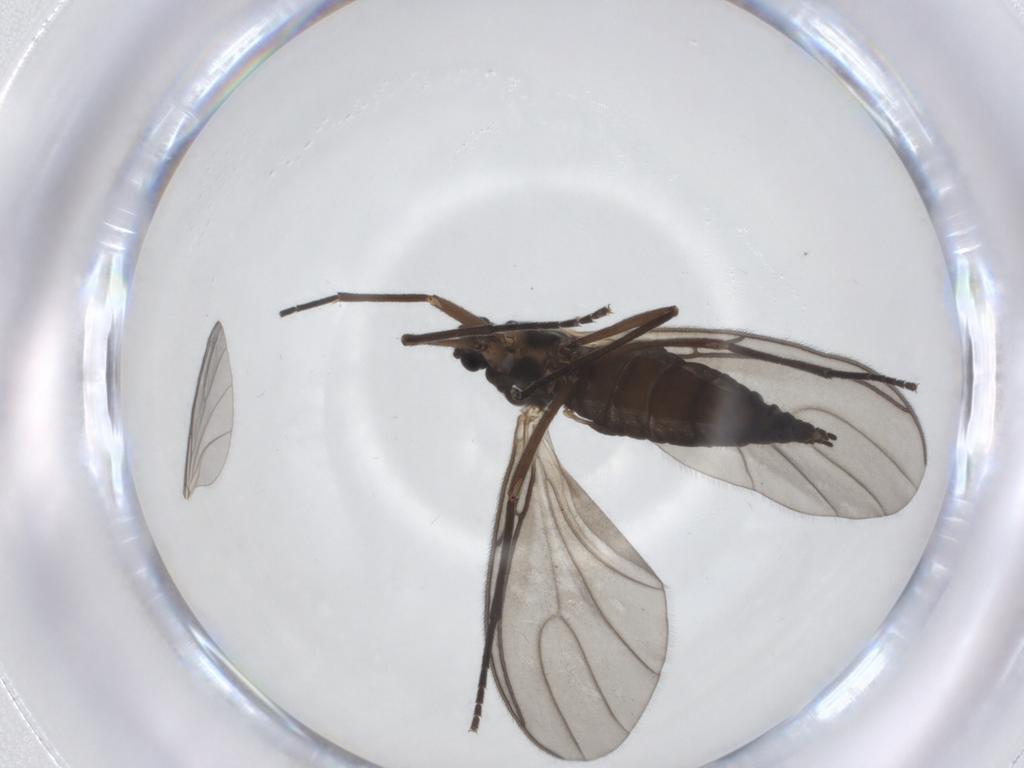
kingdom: Animalia
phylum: Arthropoda
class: Insecta
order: Diptera
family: Sciaridae
